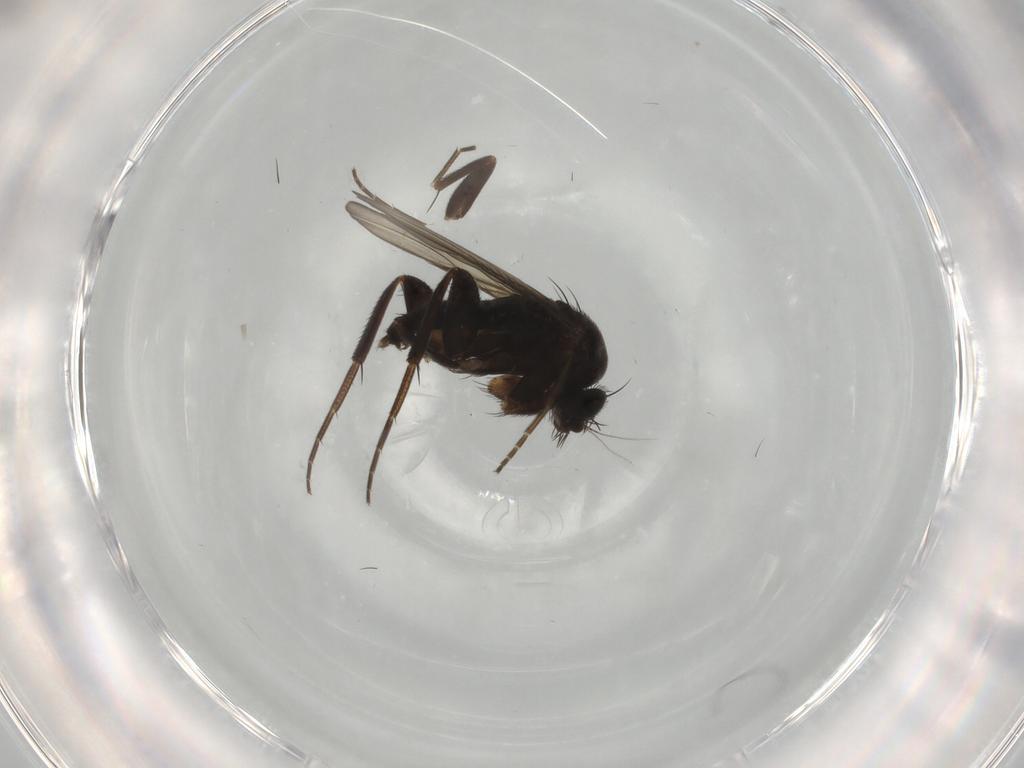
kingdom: Animalia
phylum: Arthropoda
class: Insecta
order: Diptera
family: Phoridae
